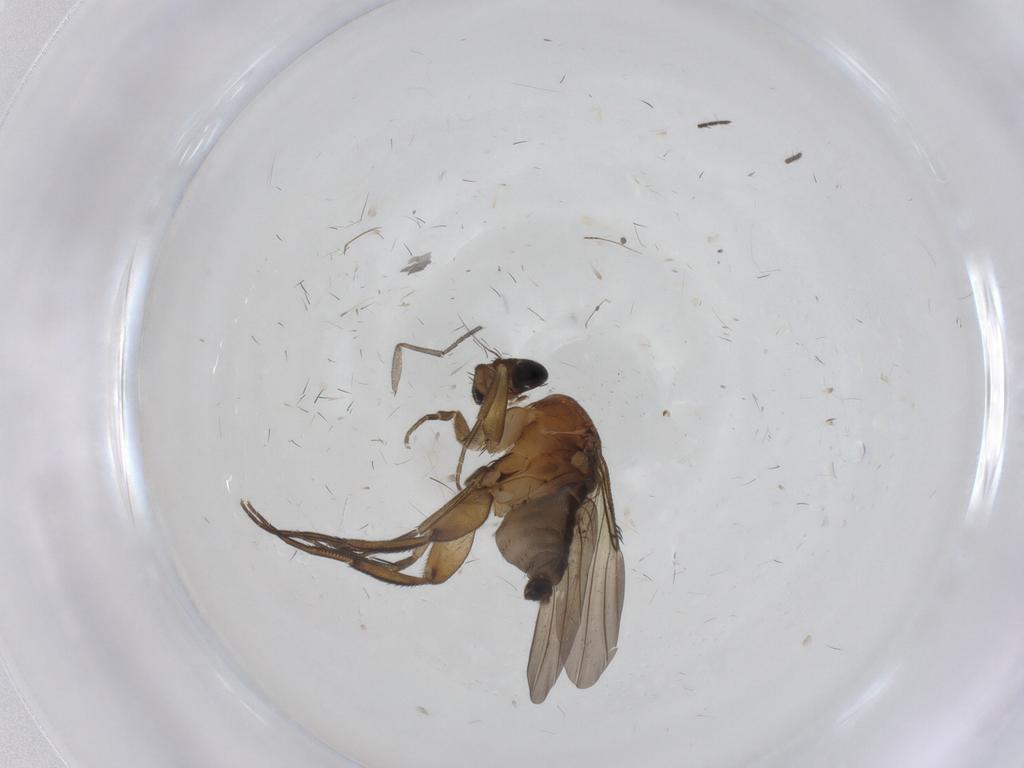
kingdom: Animalia
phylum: Arthropoda
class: Insecta
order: Diptera
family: Phoridae
